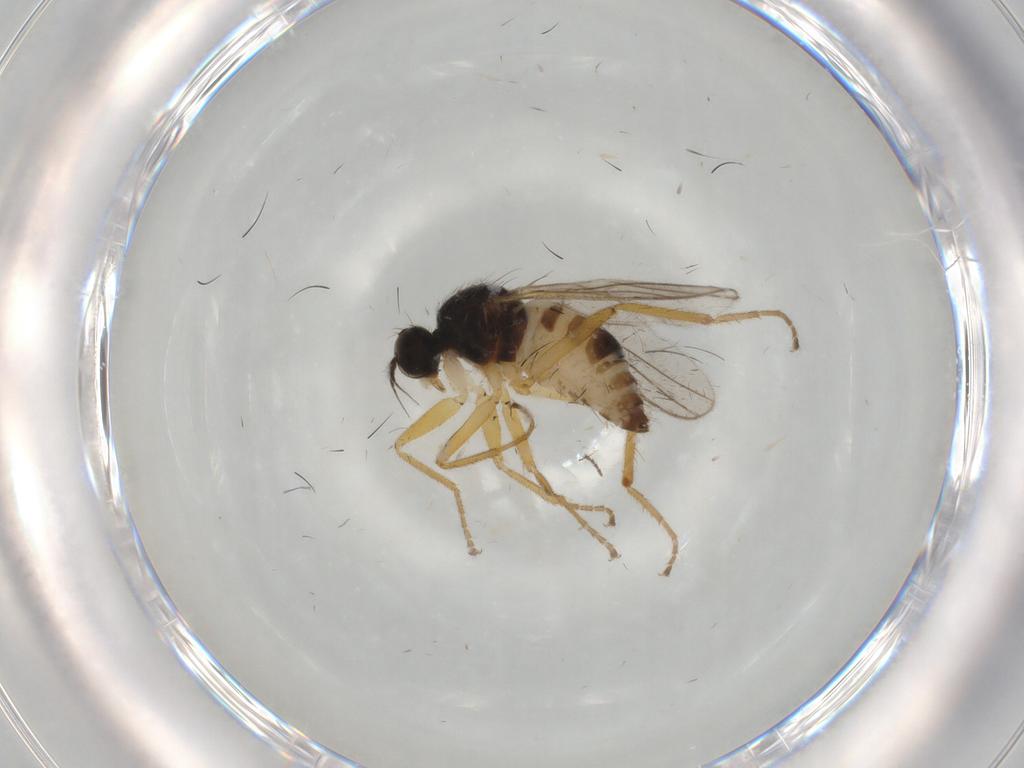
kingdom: Animalia
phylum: Arthropoda
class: Insecta
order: Diptera
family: Hybotidae
